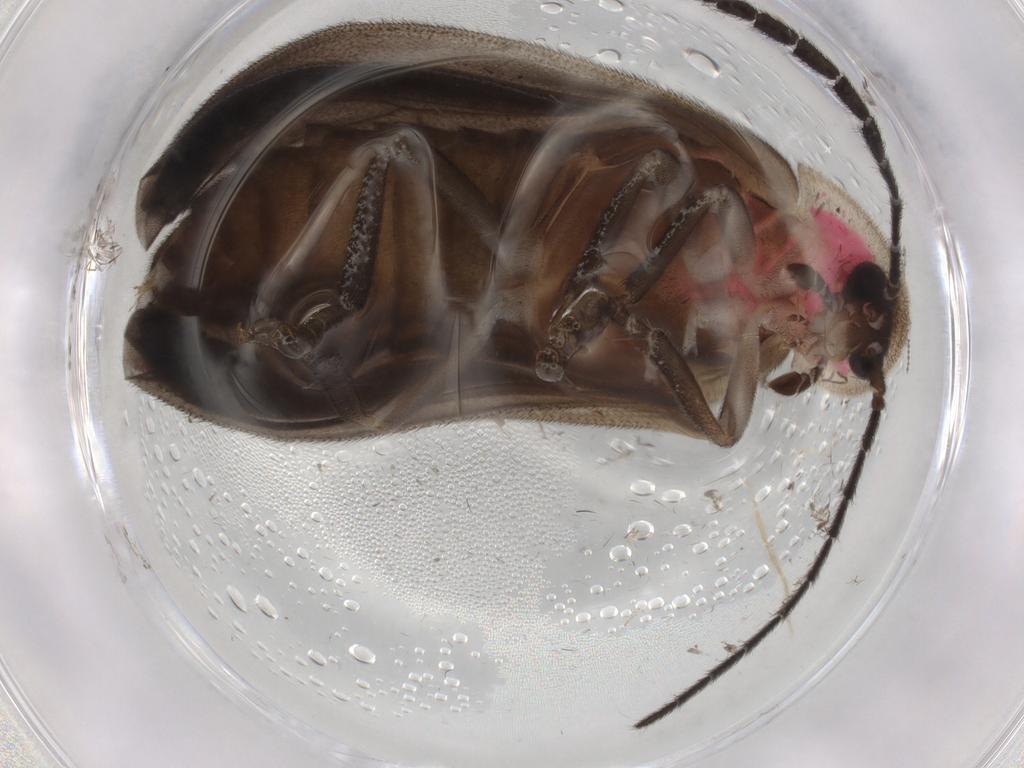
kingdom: Animalia
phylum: Arthropoda
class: Insecta
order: Coleoptera
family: Lampyridae
